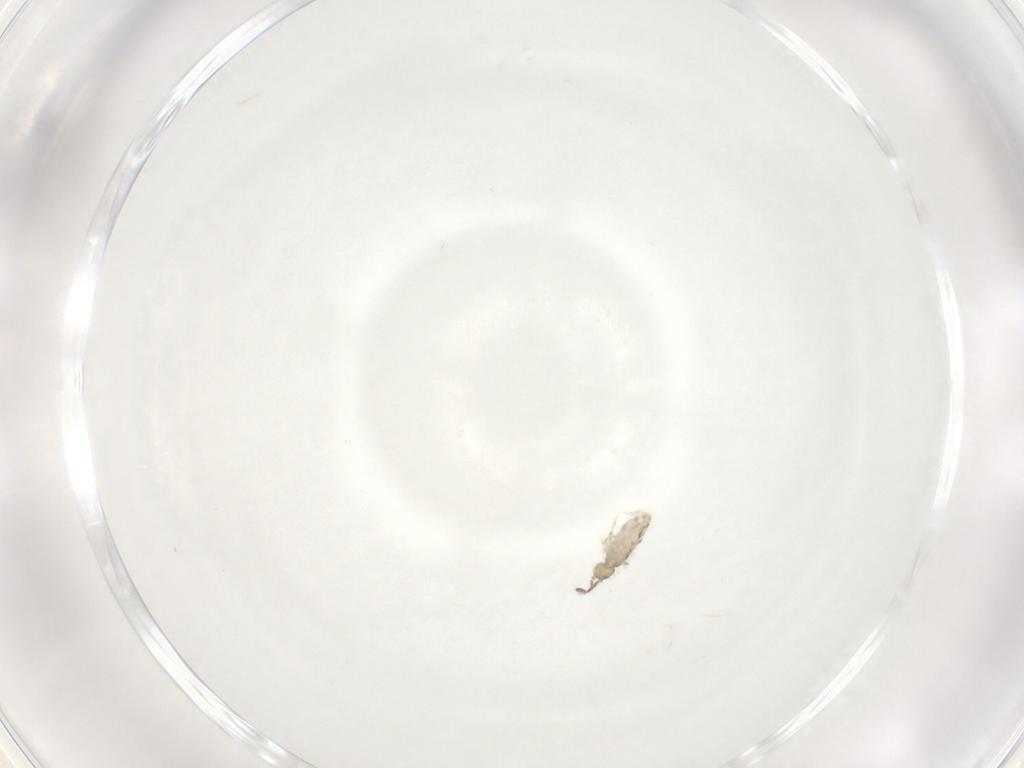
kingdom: Animalia
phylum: Arthropoda
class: Collembola
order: Entomobryomorpha
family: Entomobryidae
